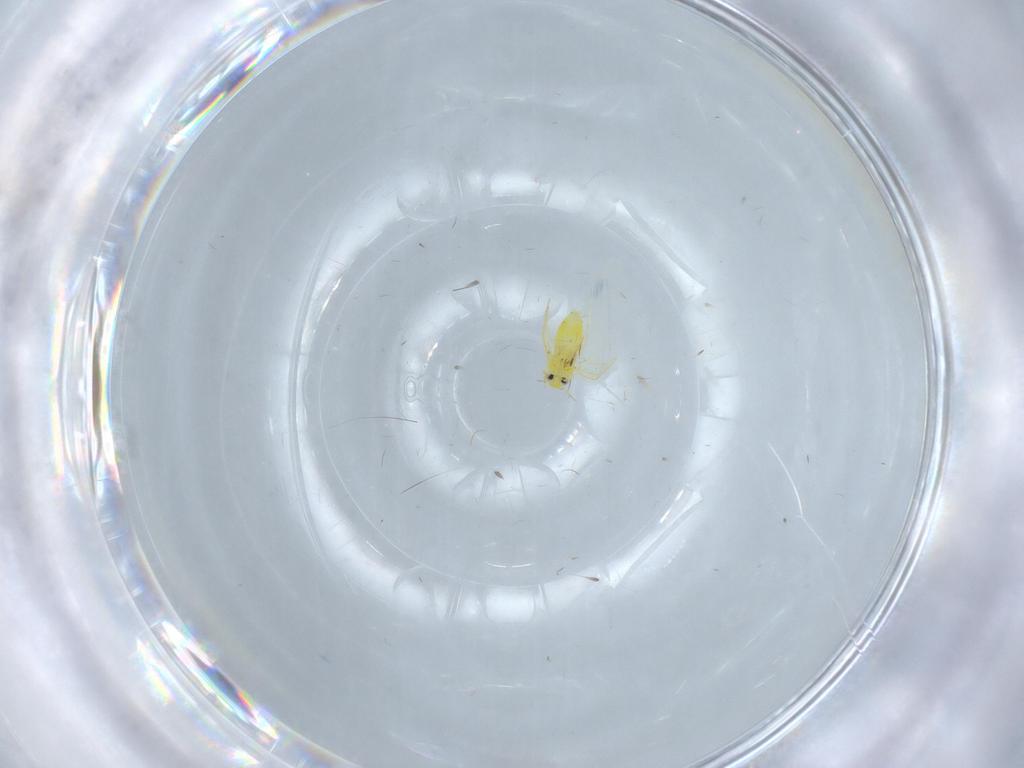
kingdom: Animalia
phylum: Arthropoda
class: Insecta
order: Hemiptera
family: Aleyrodidae
